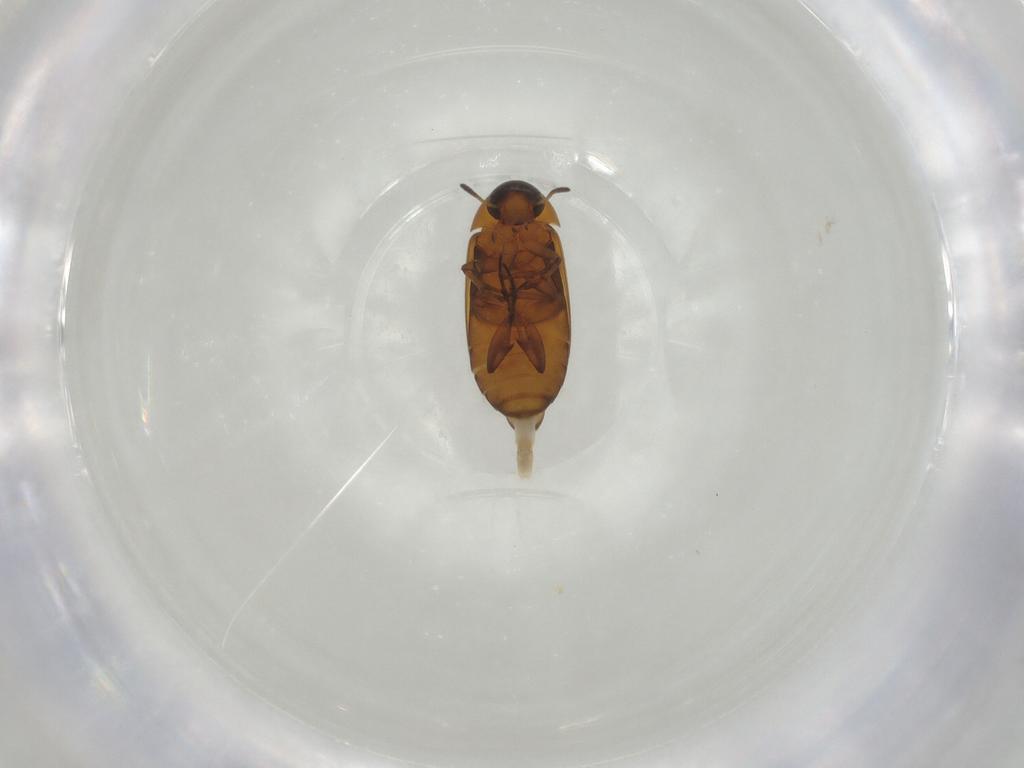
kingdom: Animalia
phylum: Arthropoda
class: Insecta
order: Coleoptera
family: Scraptiidae
